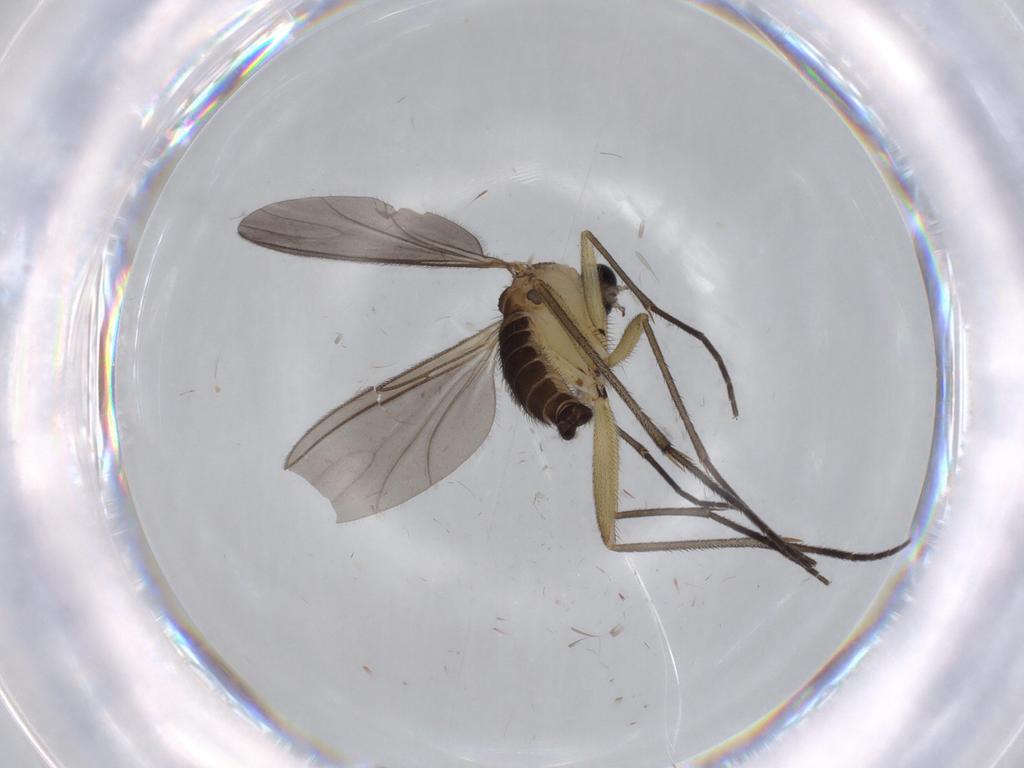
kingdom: Animalia
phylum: Arthropoda
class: Insecta
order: Diptera
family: Sciaridae
